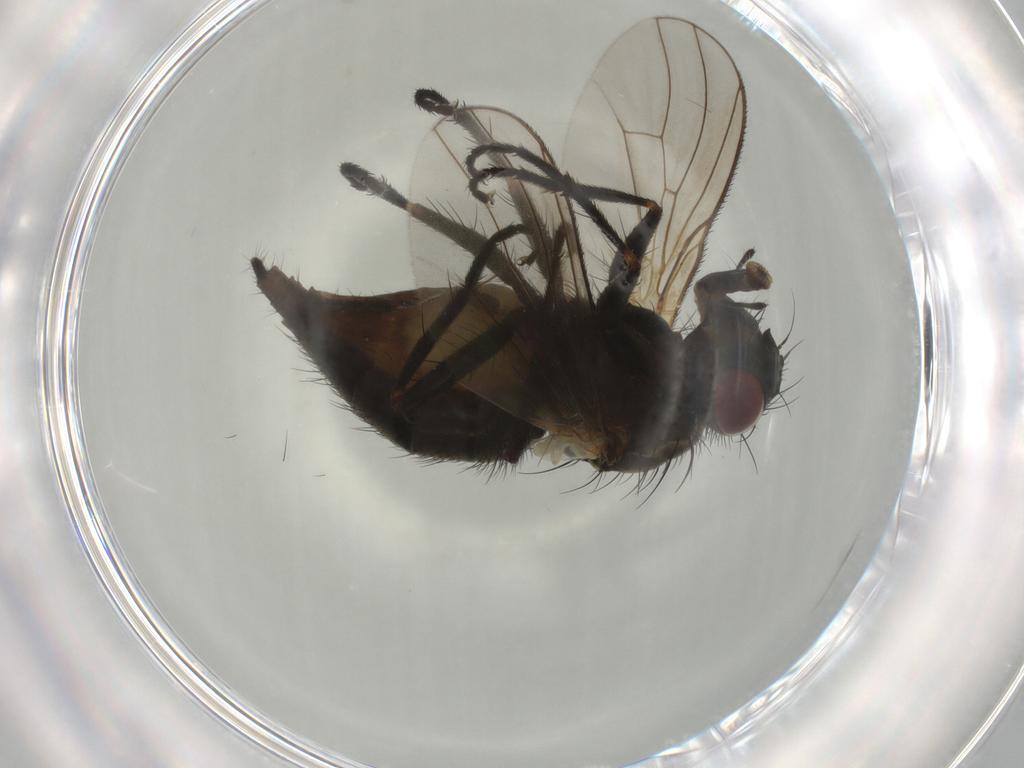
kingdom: Animalia
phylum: Arthropoda
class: Insecta
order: Diptera
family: Muscidae
